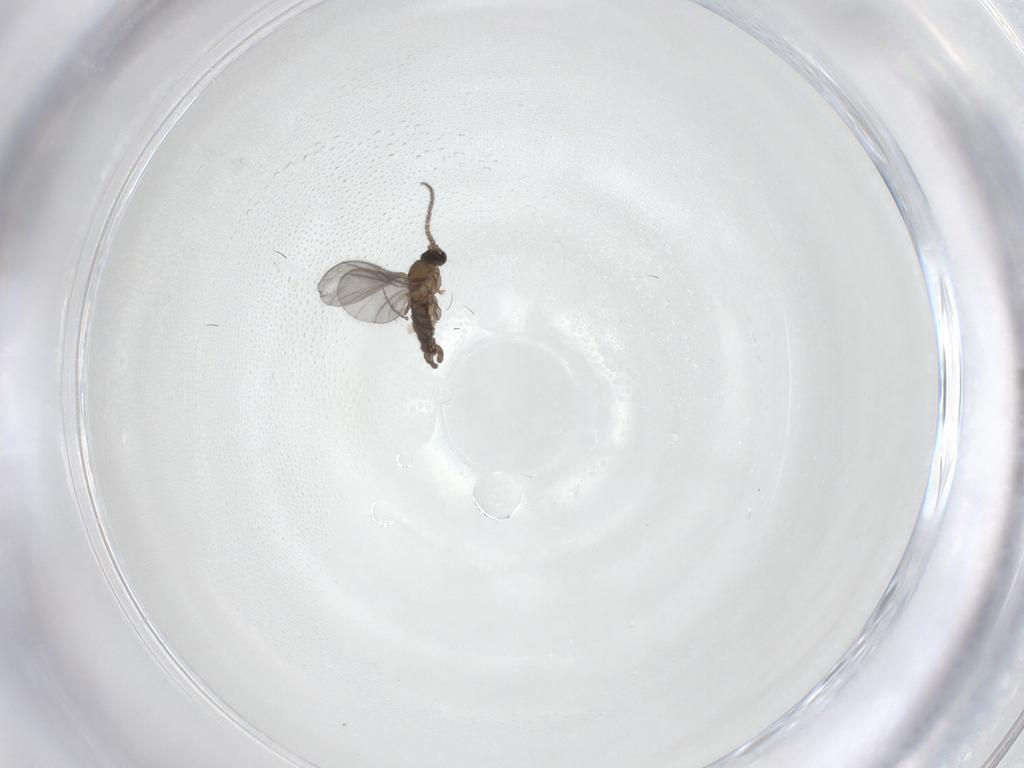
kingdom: Animalia
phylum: Arthropoda
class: Insecta
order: Diptera
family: Sciaridae
